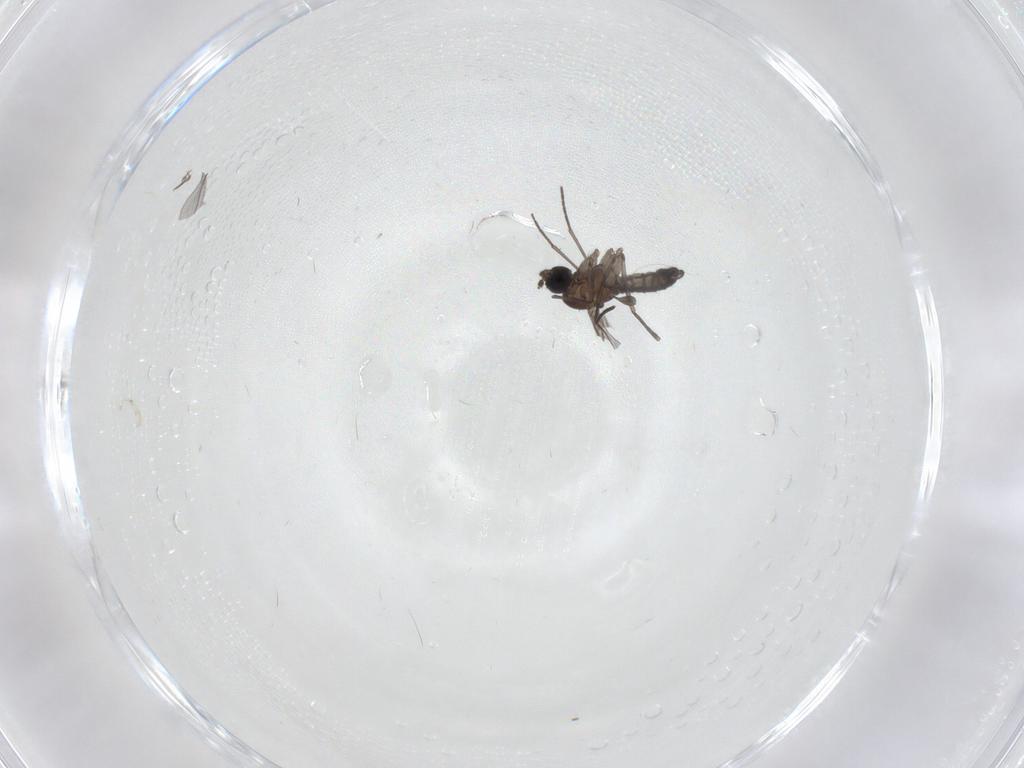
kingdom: Animalia
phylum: Arthropoda
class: Insecta
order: Diptera
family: Sciaridae
